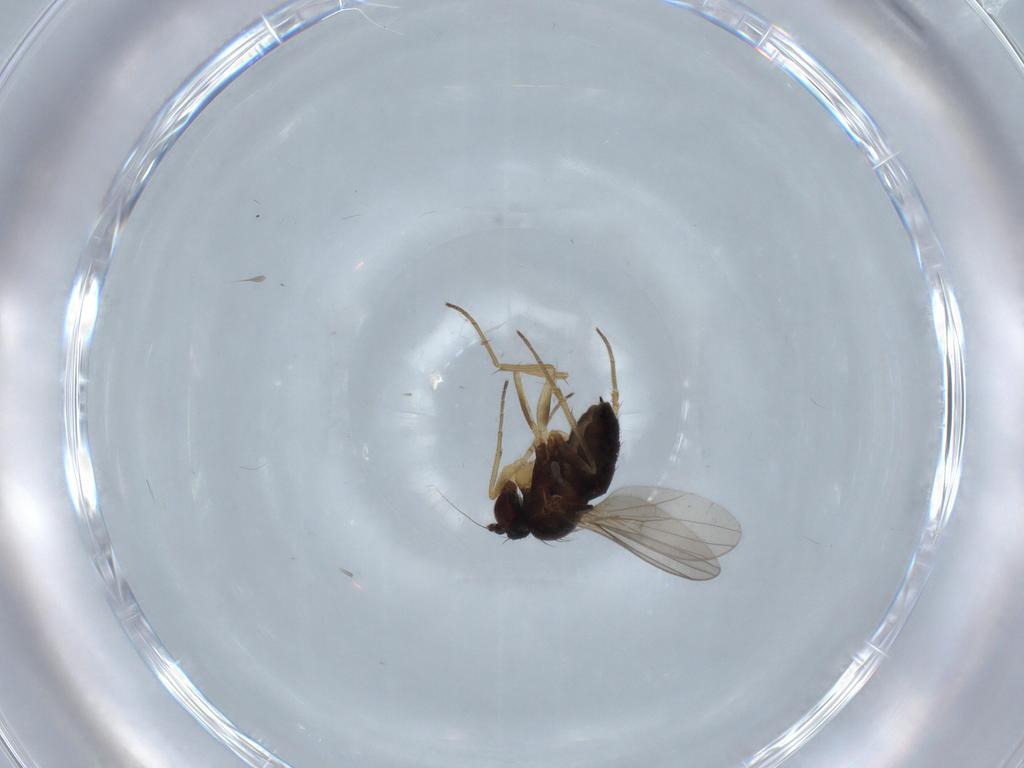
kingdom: Animalia
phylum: Arthropoda
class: Insecta
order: Diptera
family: Dolichopodidae
